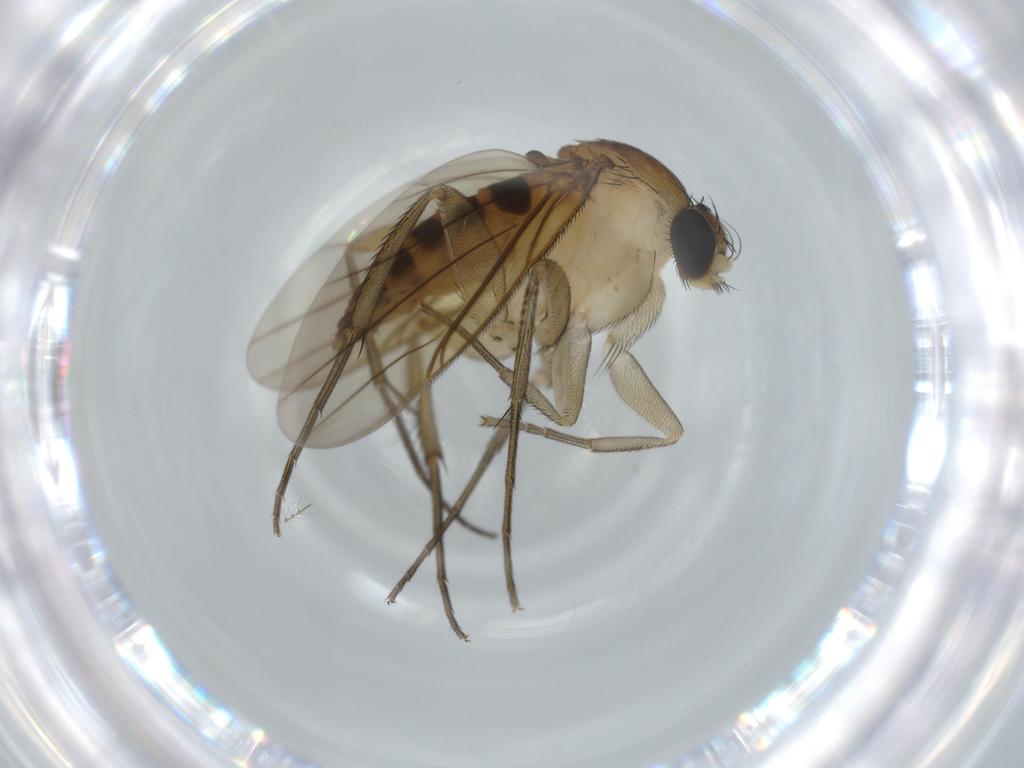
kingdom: Animalia
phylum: Arthropoda
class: Insecta
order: Diptera
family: Mycetophilidae
